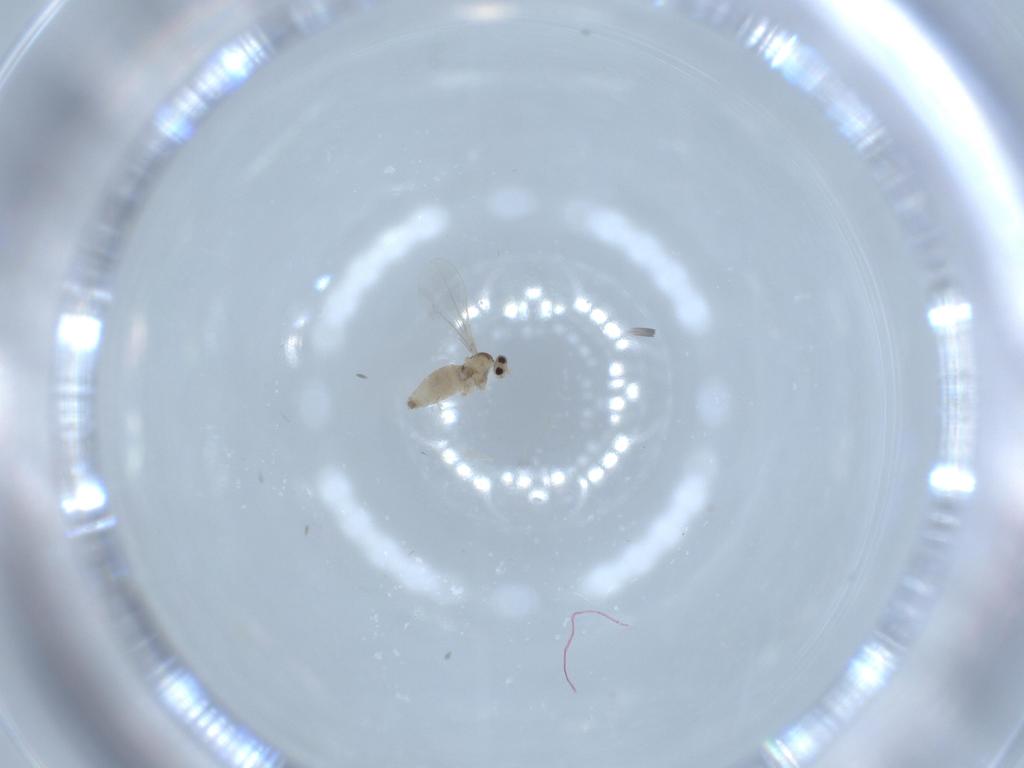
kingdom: Animalia
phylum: Arthropoda
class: Insecta
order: Diptera
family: Cecidomyiidae
